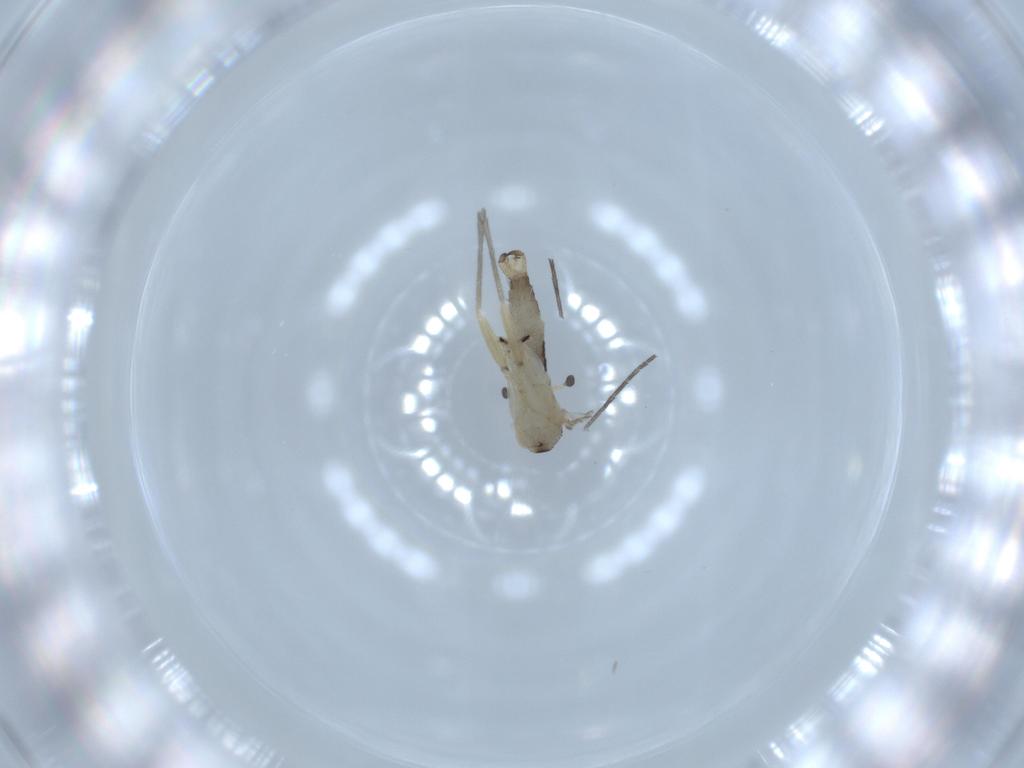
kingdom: Animalia
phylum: Arthropoda
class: Insecta
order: Diptera
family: Sciaridae
